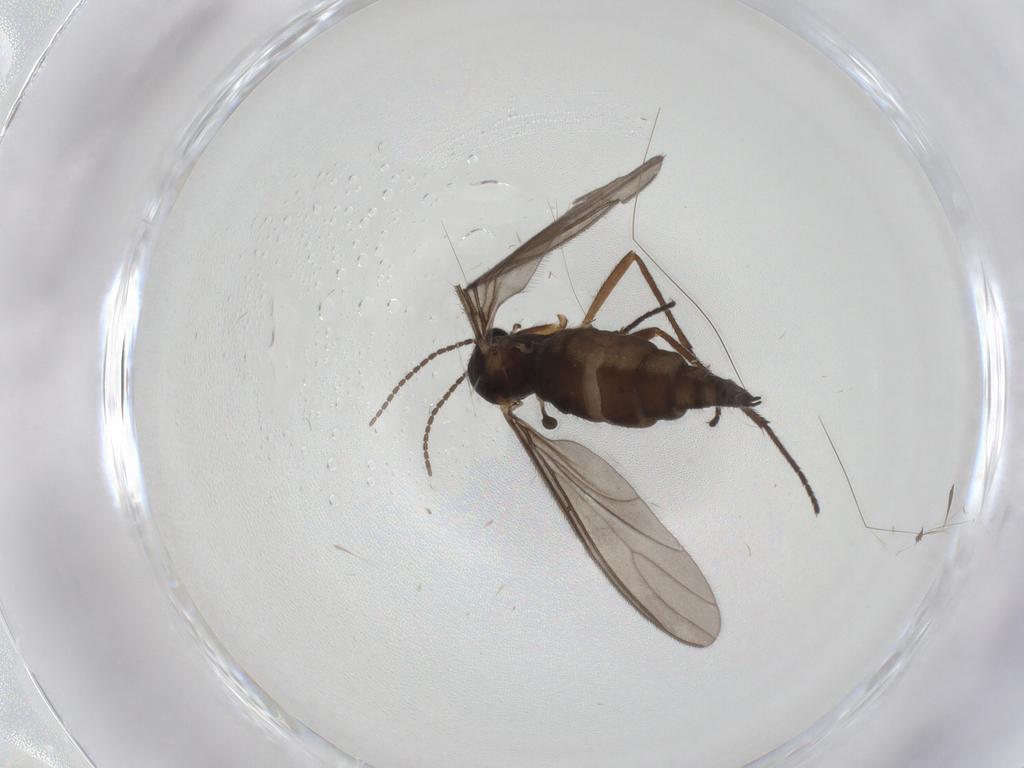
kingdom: Animalia
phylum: Arthropoda
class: Insecta
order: Diptera
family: Sciaridae
